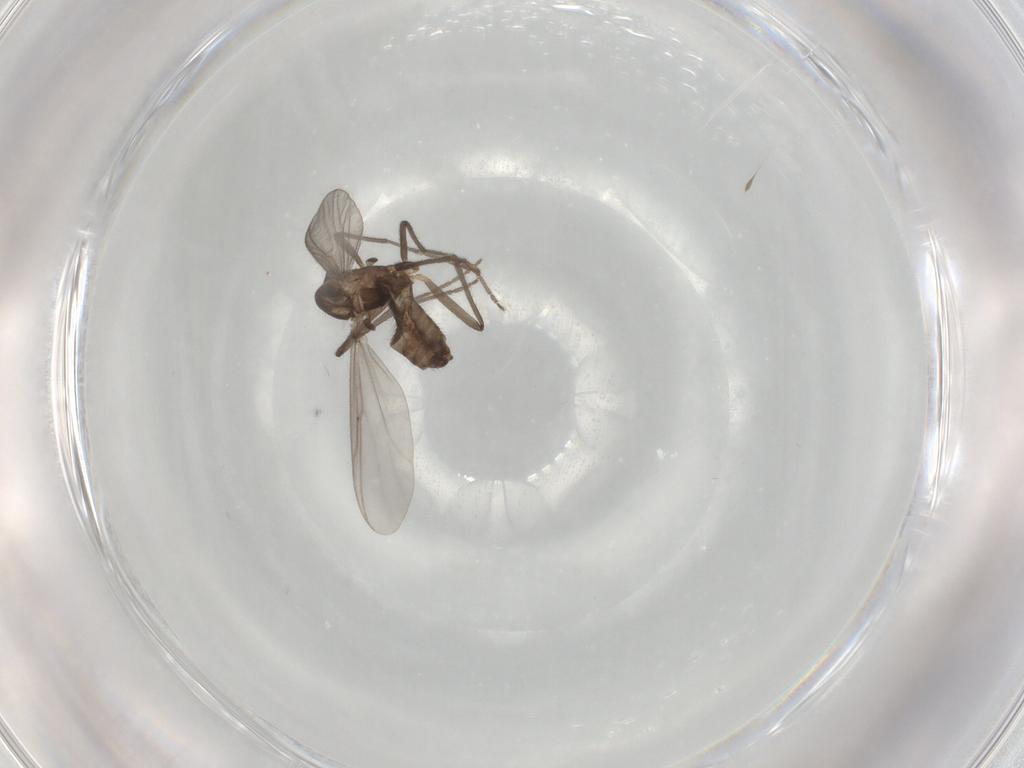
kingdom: Animalia
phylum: Arthropoda
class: Insecta
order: Diptera
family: Chironomidae
